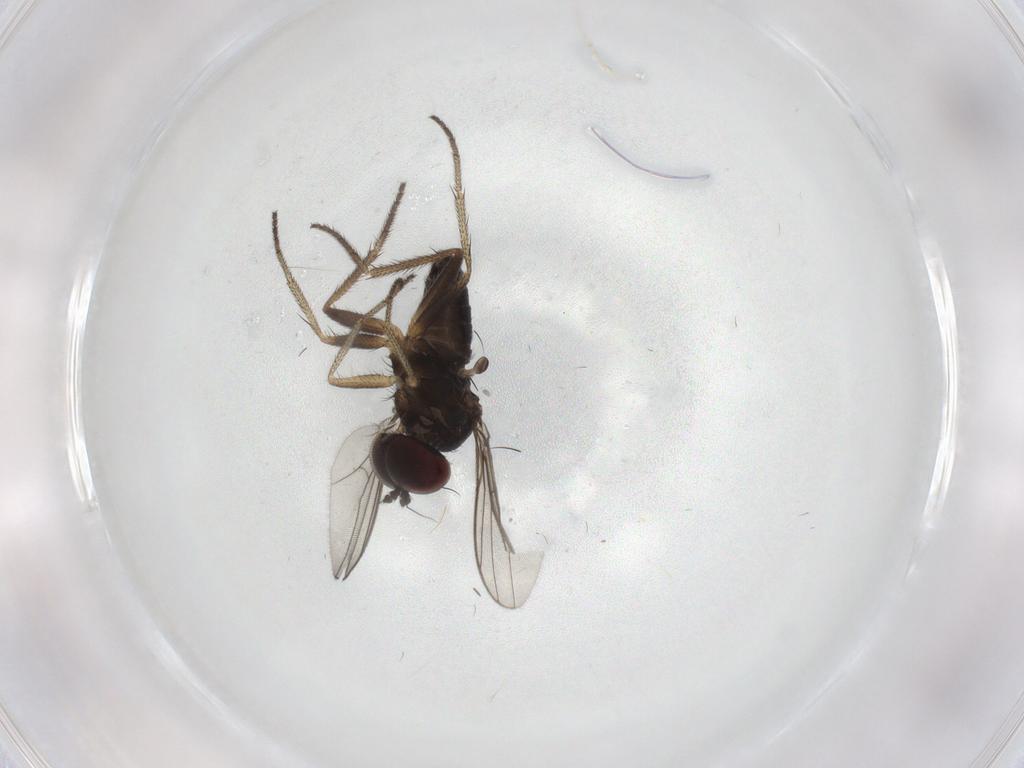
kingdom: Animalia
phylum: Arthropoda
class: Insecta
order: Diptera
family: Dolichopodidae
